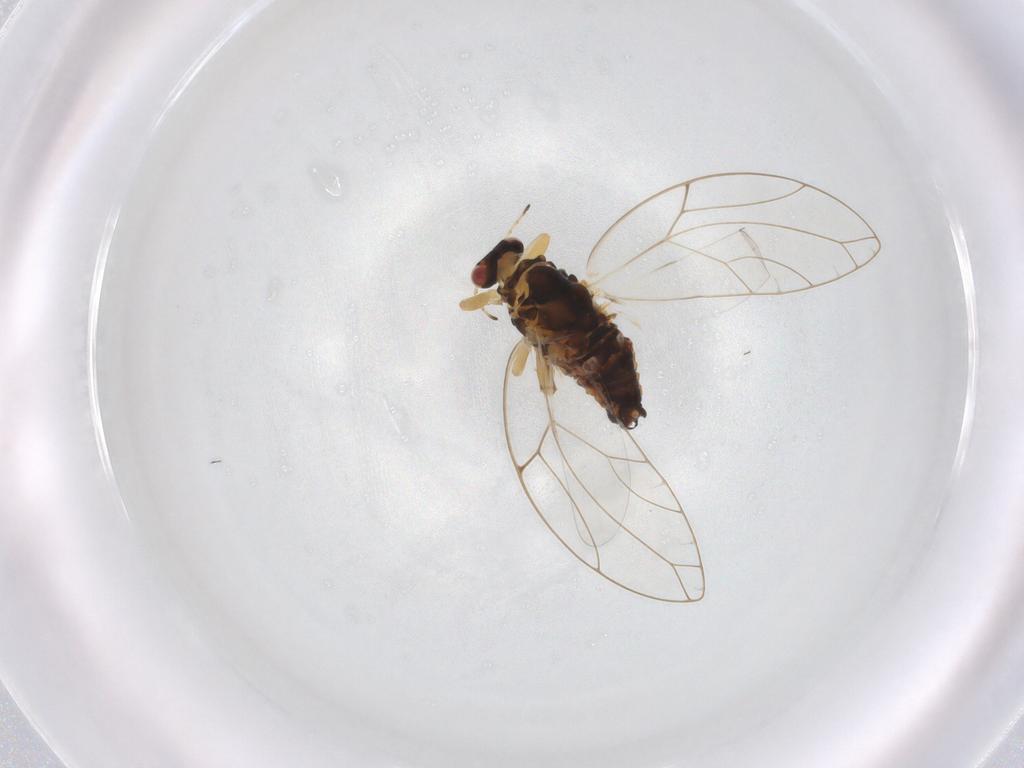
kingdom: Animalia
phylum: Arthropoda
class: Insecta
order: Hemiptera
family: Triozidae
